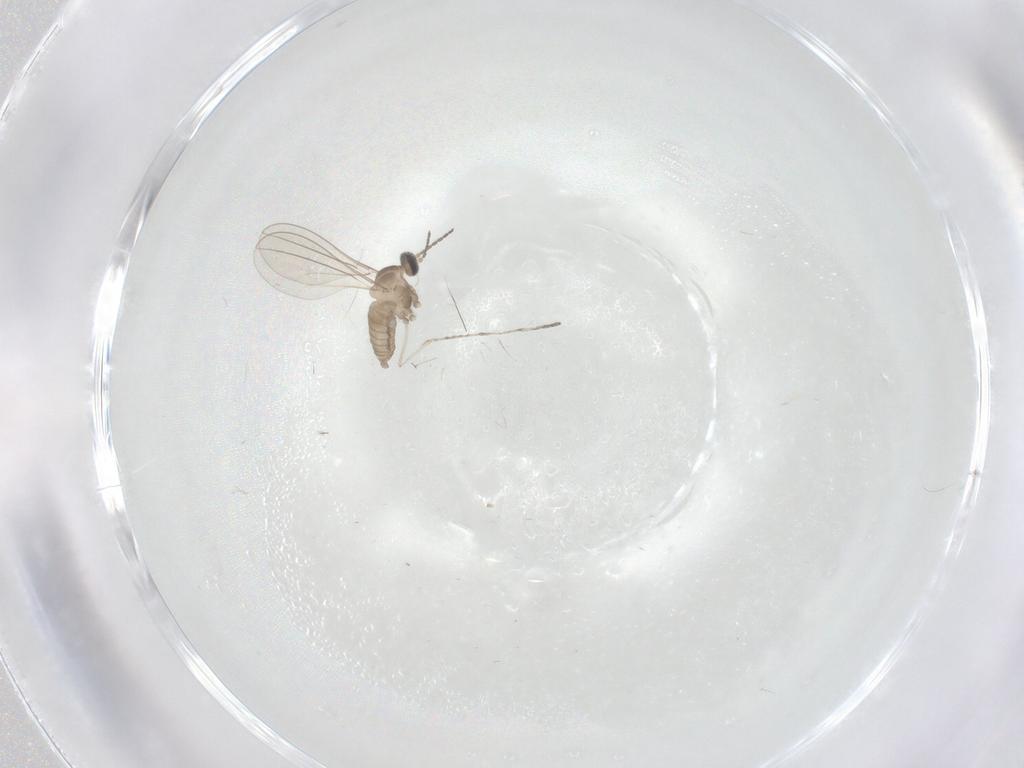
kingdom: Animalia
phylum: Arthropoda
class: Insecta
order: Diptera
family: Cecidomyiidae
